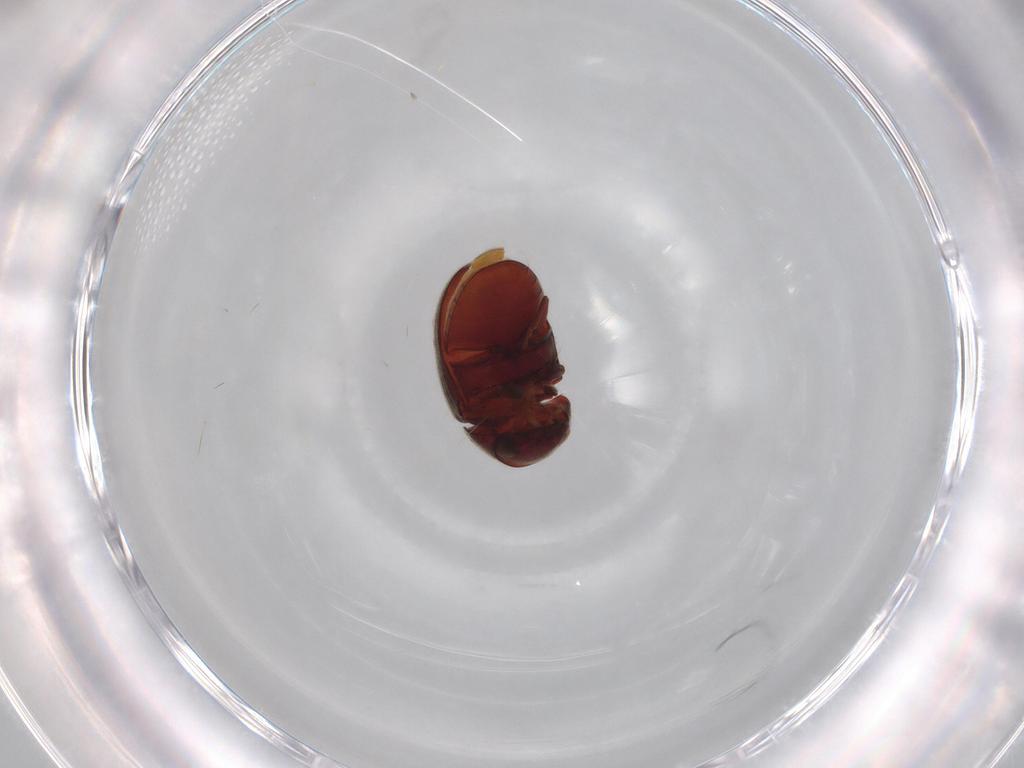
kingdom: Animalia
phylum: Arthropoda
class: Insecta
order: Coleoptera
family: Ptinidae
